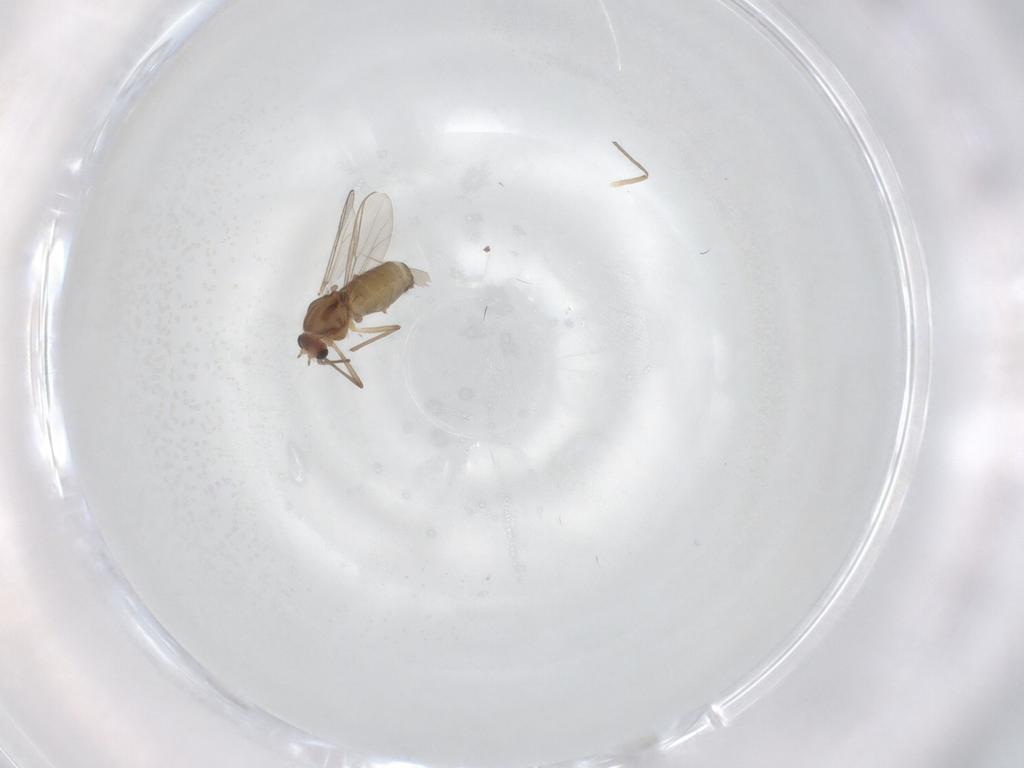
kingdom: Animalia
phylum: Arthropoda
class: Insecta
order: Diptera
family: Chironomidae
